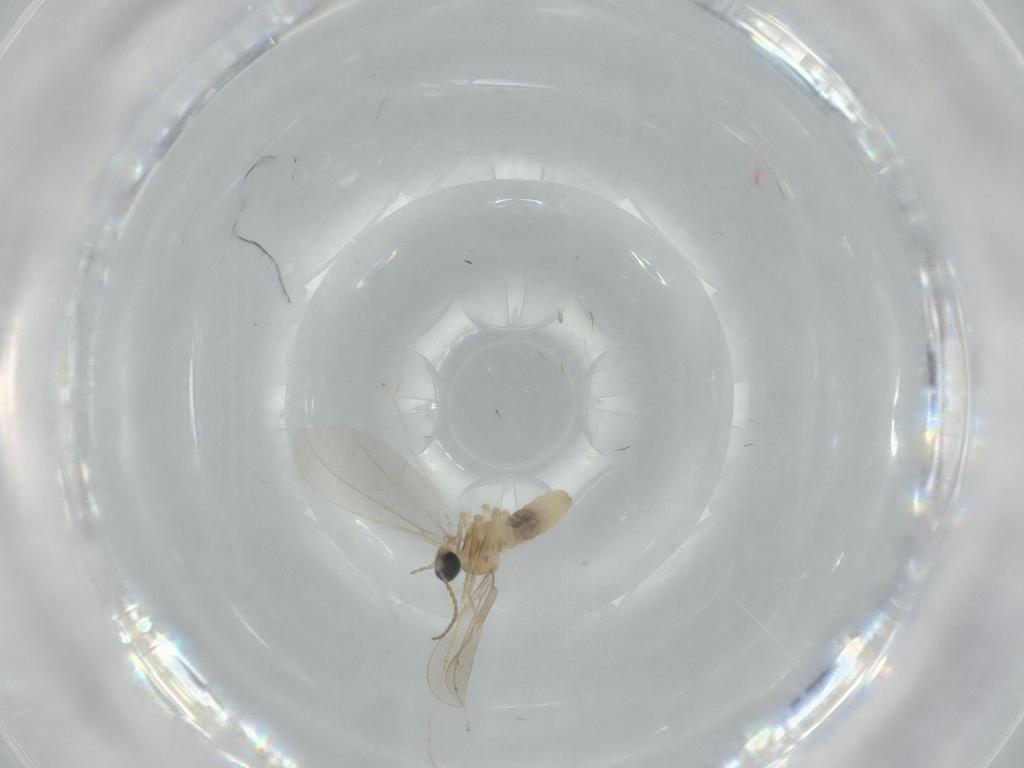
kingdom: Animalia
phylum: Arthropoda
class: Insecta
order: Diptera
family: Cecidomyiidae
